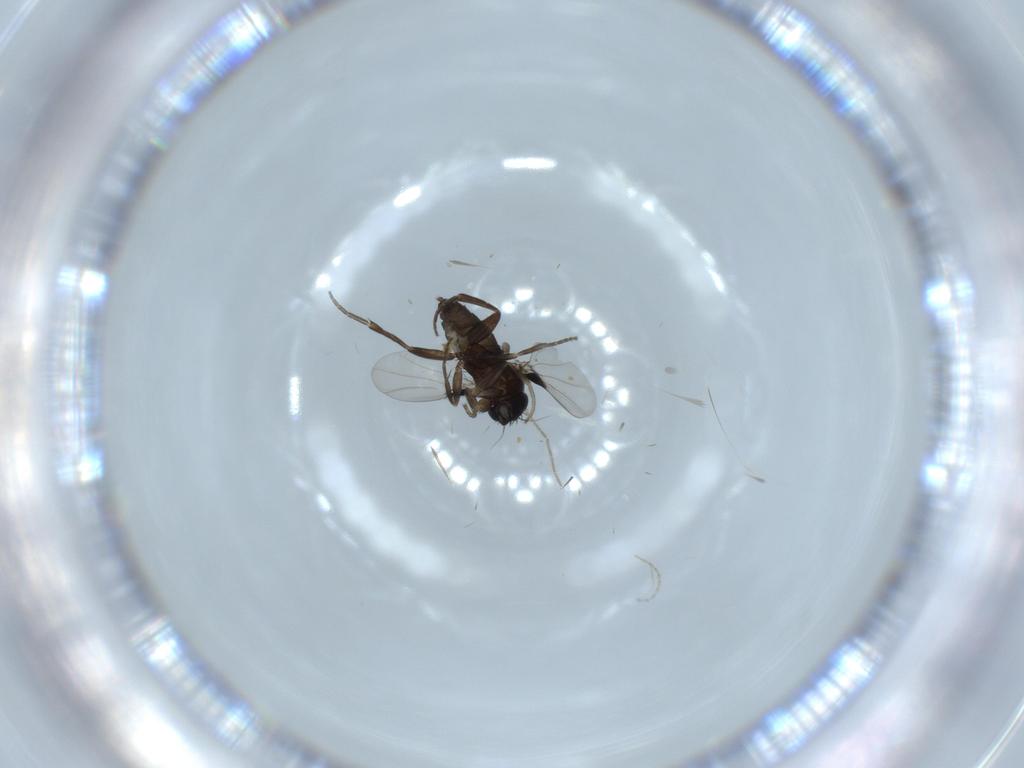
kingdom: Animalia
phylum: Arthropoda
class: Insecta
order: Diptera
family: Phoridae
